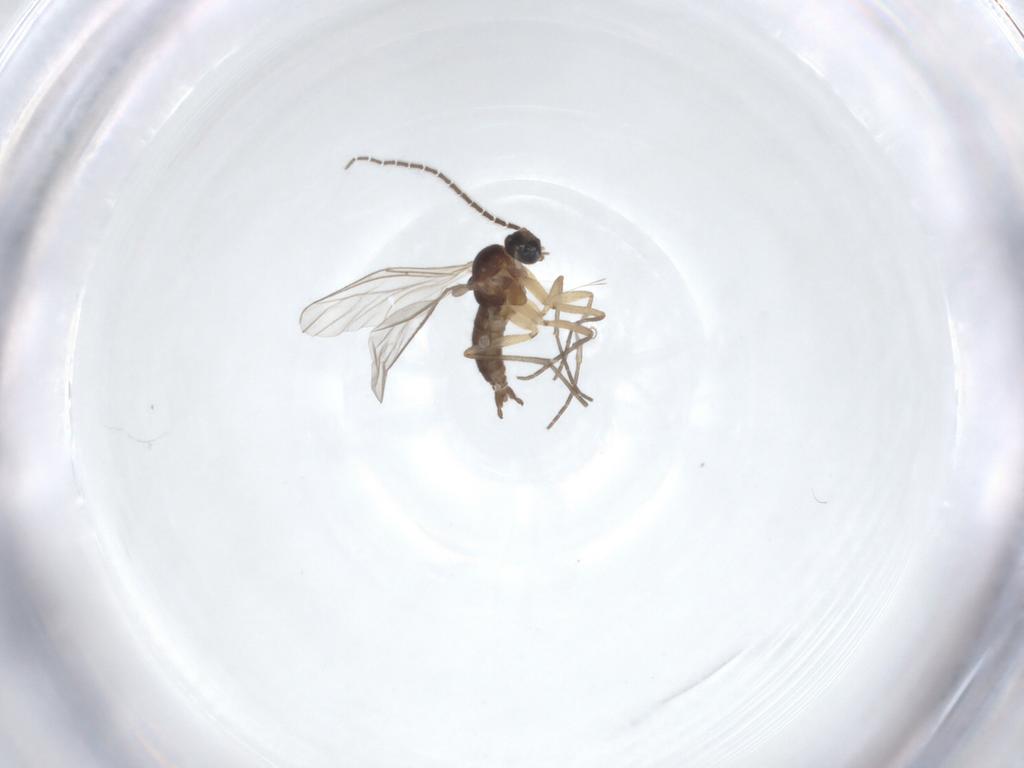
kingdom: Animalia
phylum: Arthropoda
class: Insecta
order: Diptera
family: Sciaridae
